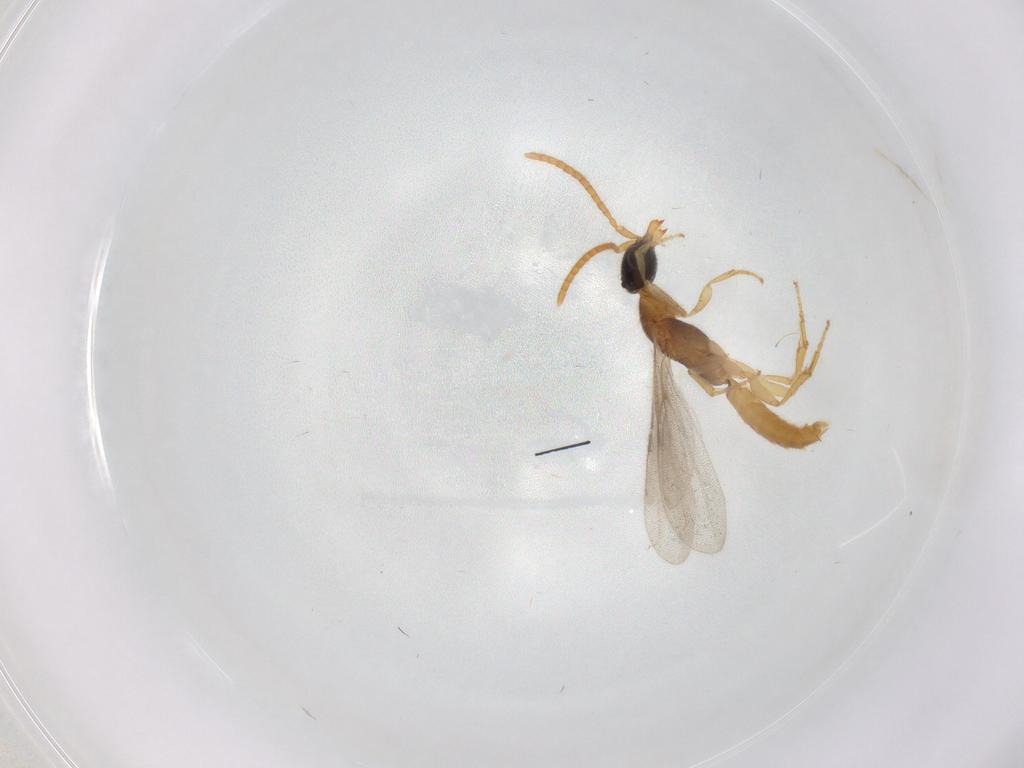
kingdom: Animalia
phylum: Arthropoda
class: Insecta
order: Hymenoptera
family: Bethylidae
